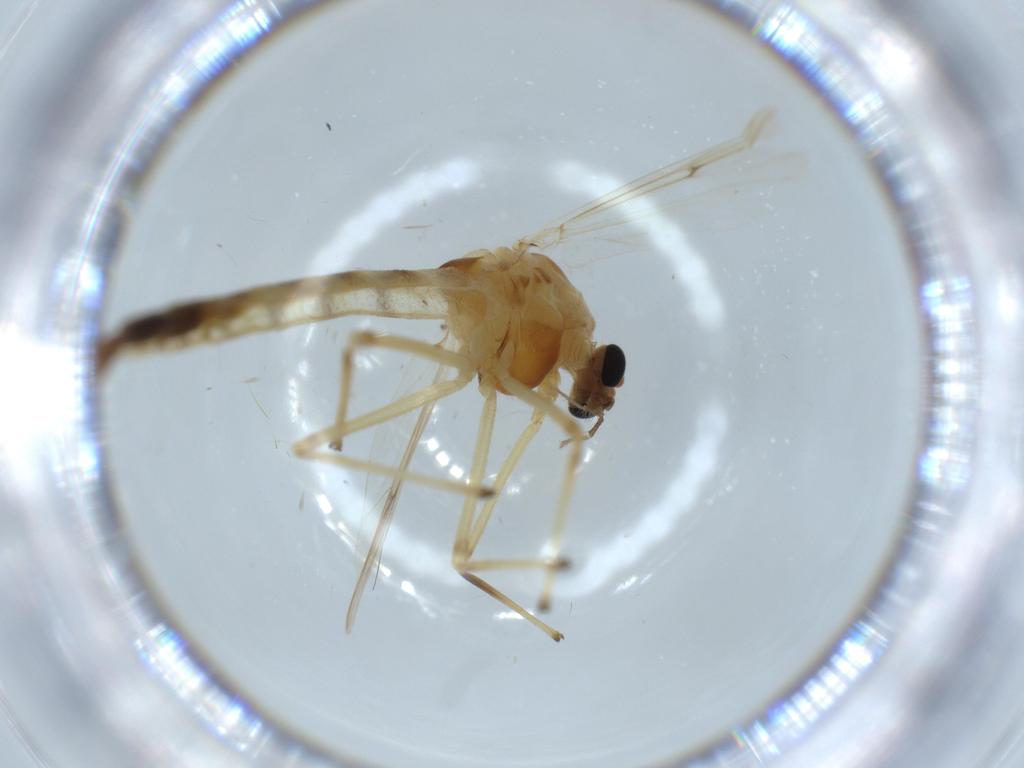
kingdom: Animalia
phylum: Arthropoda
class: Insecta
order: Diptera
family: Chironomidae
